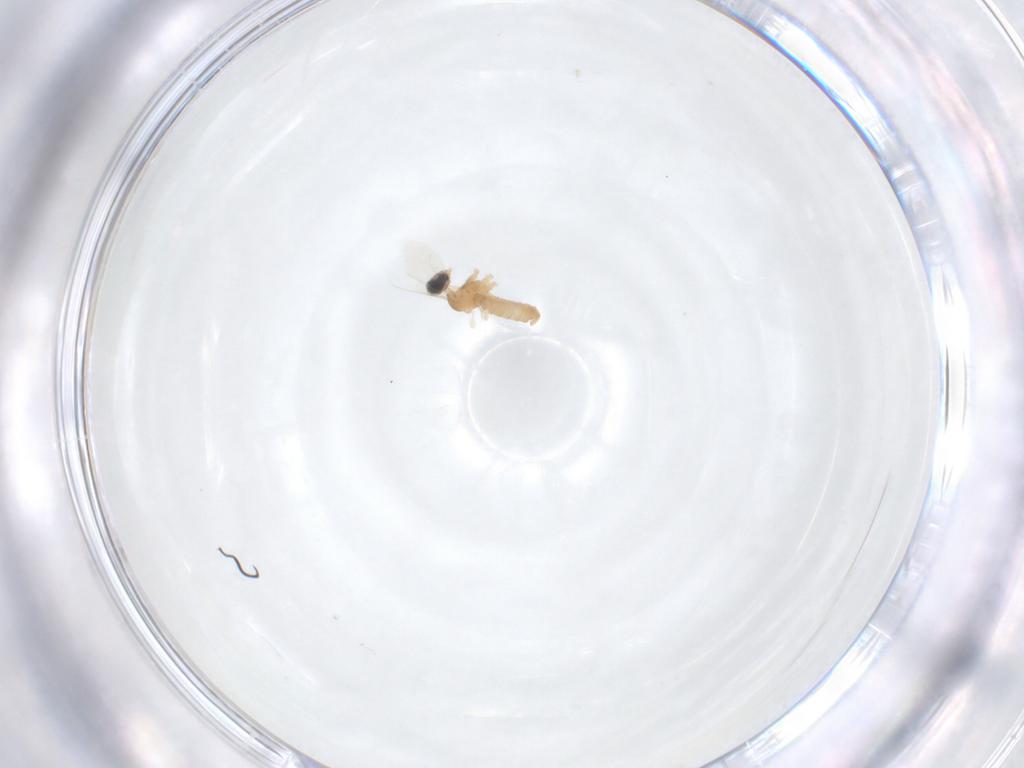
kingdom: Animalia
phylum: Arthropoda
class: Insecta
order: Diptera
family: Cecidomyiidae
